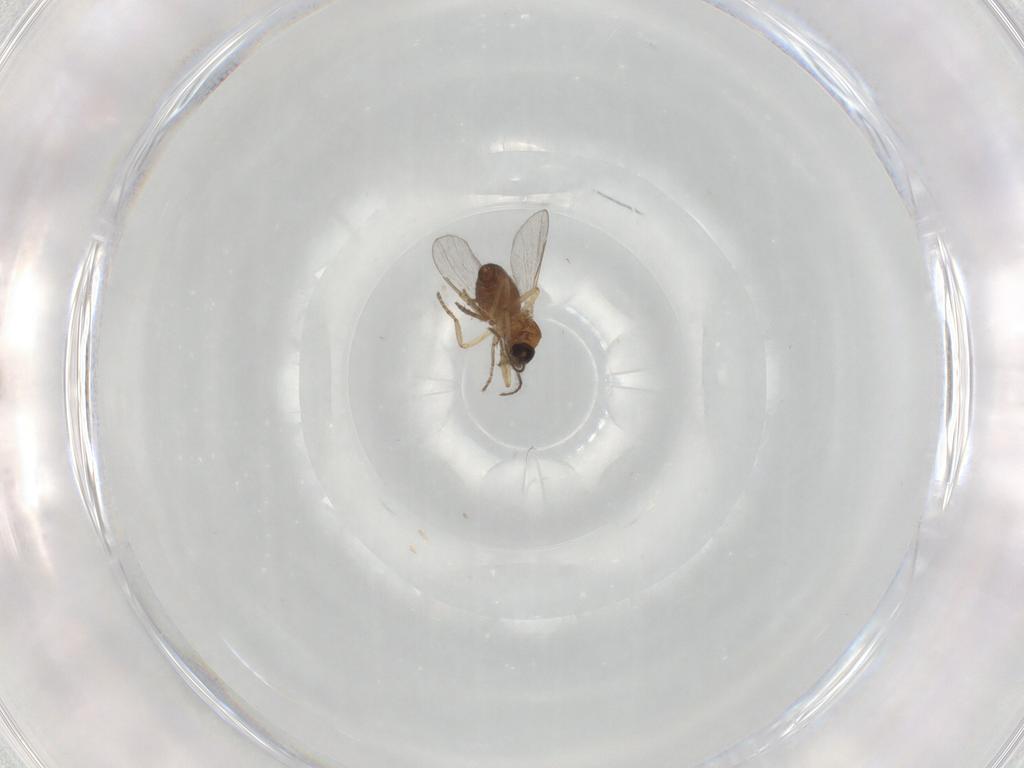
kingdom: Animalia
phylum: Arthropoda
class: Insecta
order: Diptera
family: Ceratopogonidae
